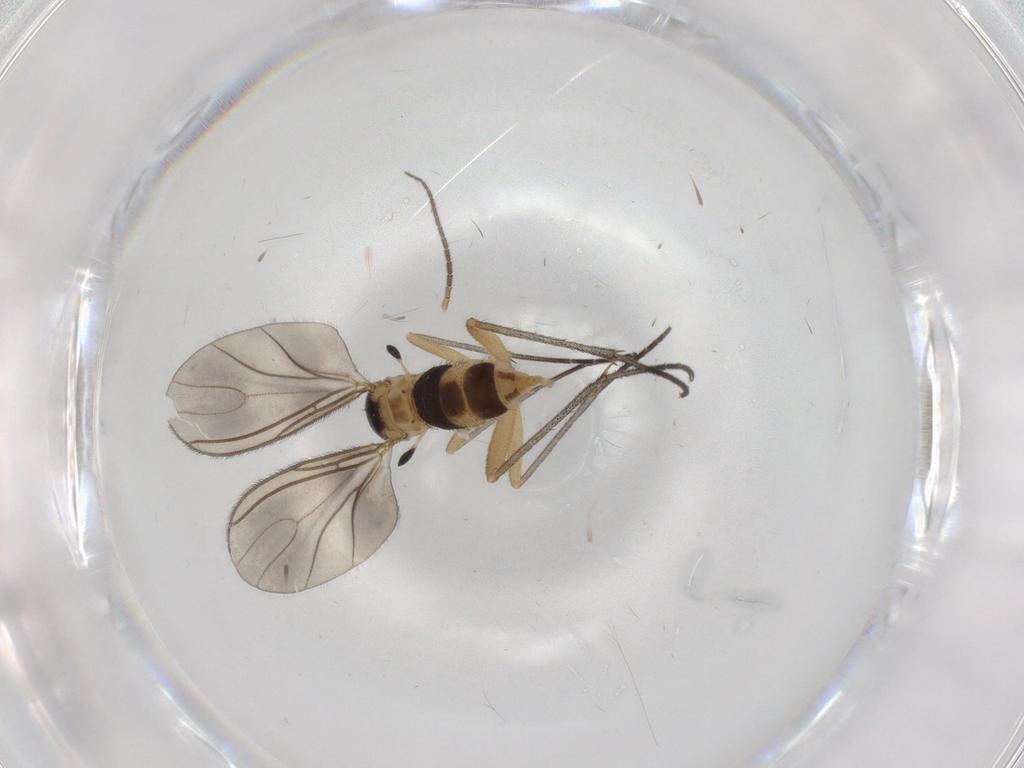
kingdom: Animalia
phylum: Arthropoda
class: Insecta
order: Diptera
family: Sciaridae
